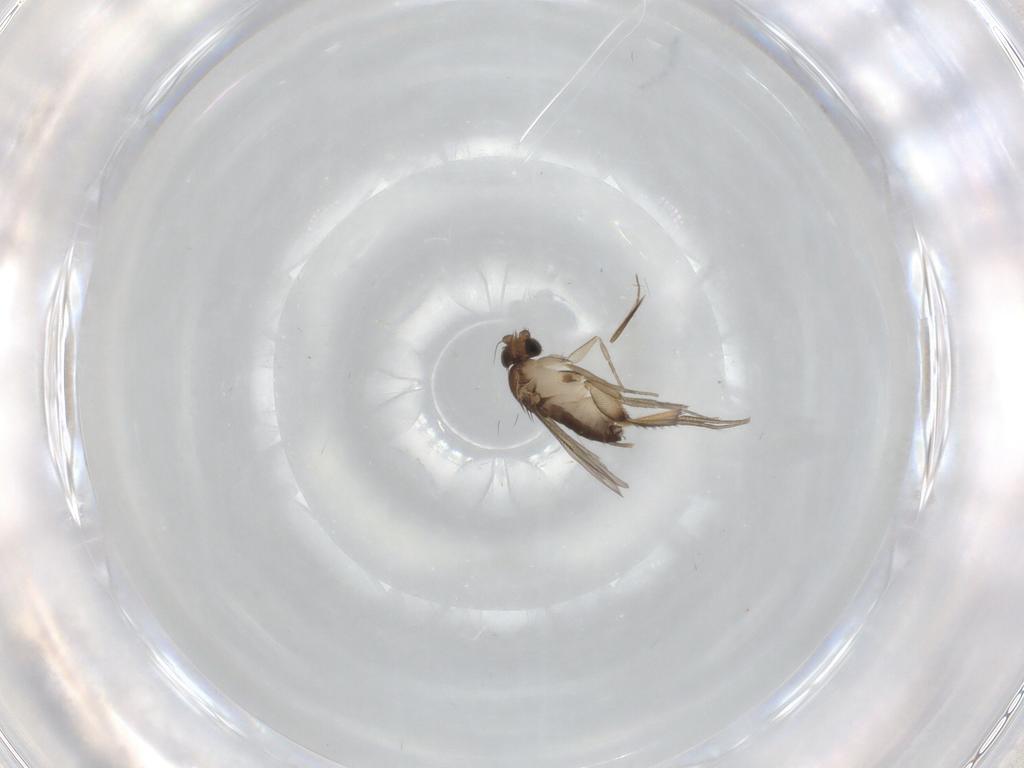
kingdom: Animalia
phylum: Arthropoda
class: Insecta
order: Diptera
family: Phoridae
